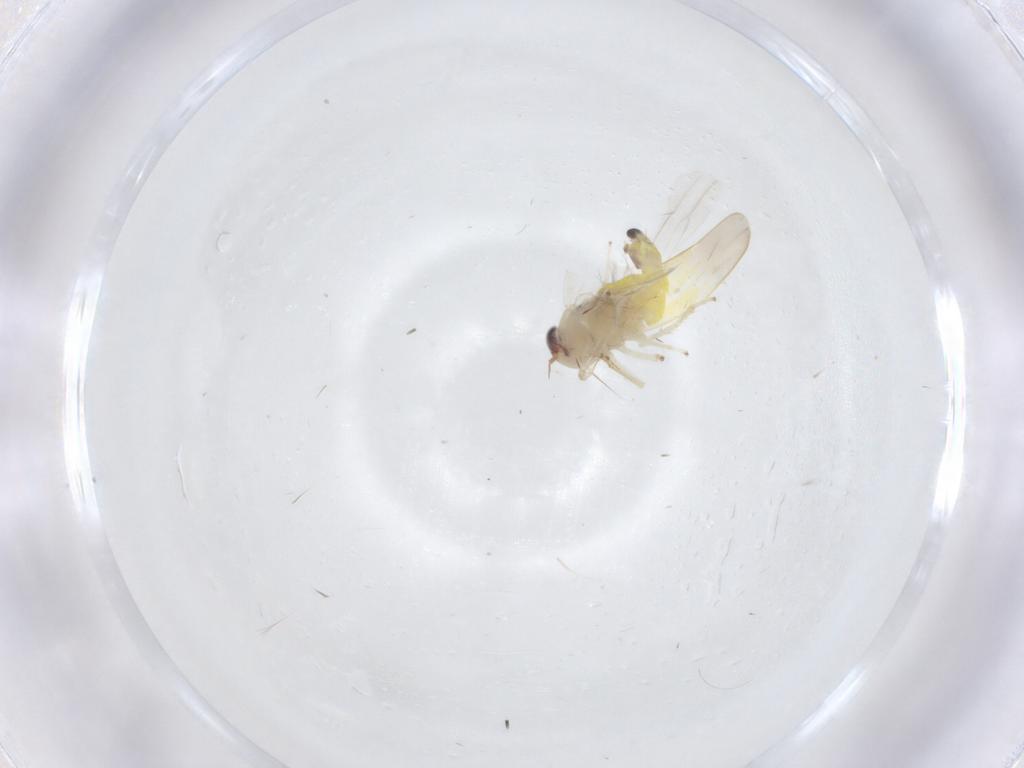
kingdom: Animalia
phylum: Arthropoda
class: Insecta
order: Hemiptera
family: Cicadellidae
